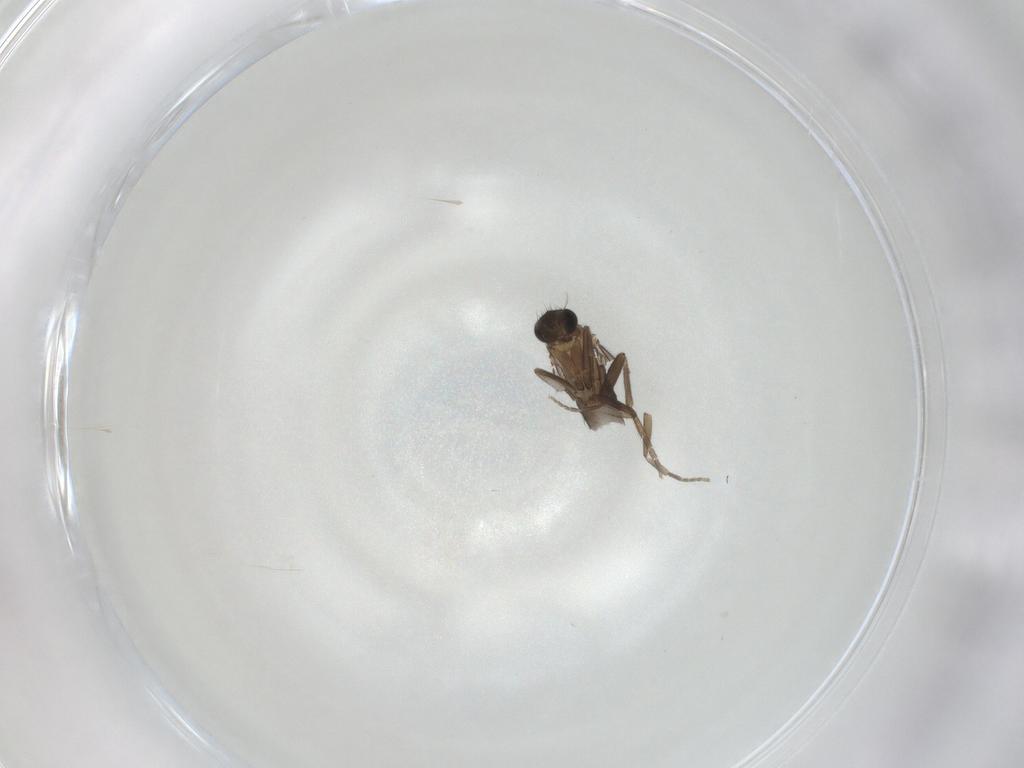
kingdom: Animalia
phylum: Arthropoda
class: Insecta
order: Diptera
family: Phoridae
